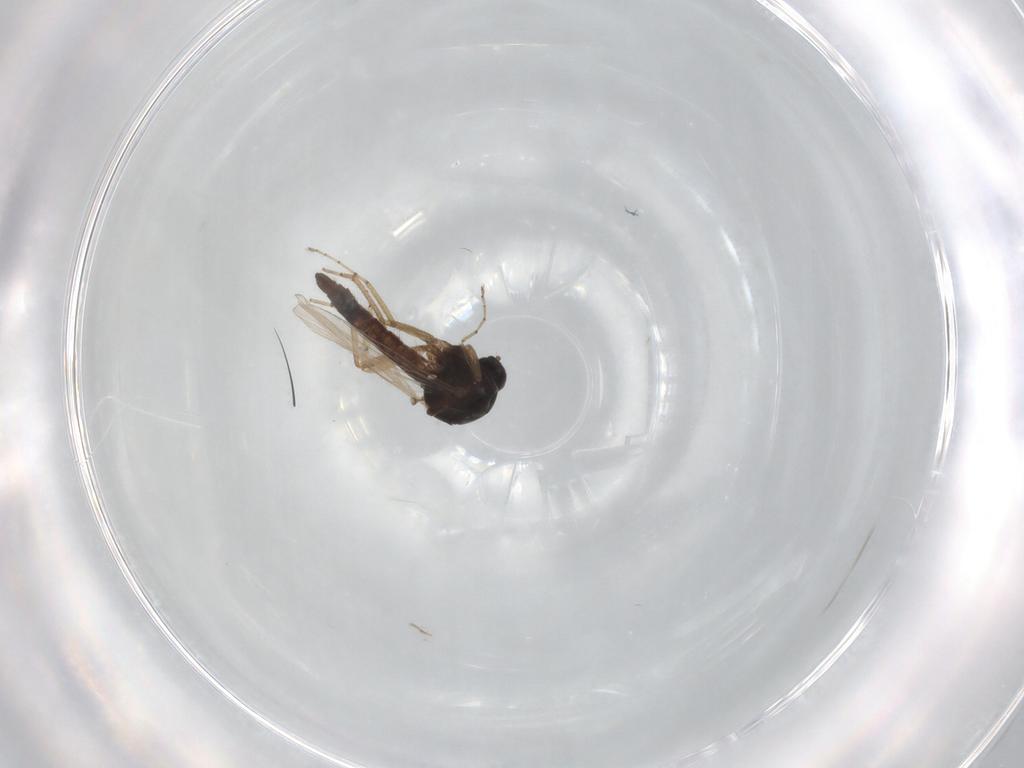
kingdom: Animalia
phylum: Arthropoda
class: Insecta
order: Diptera
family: Ceratopogonidae
